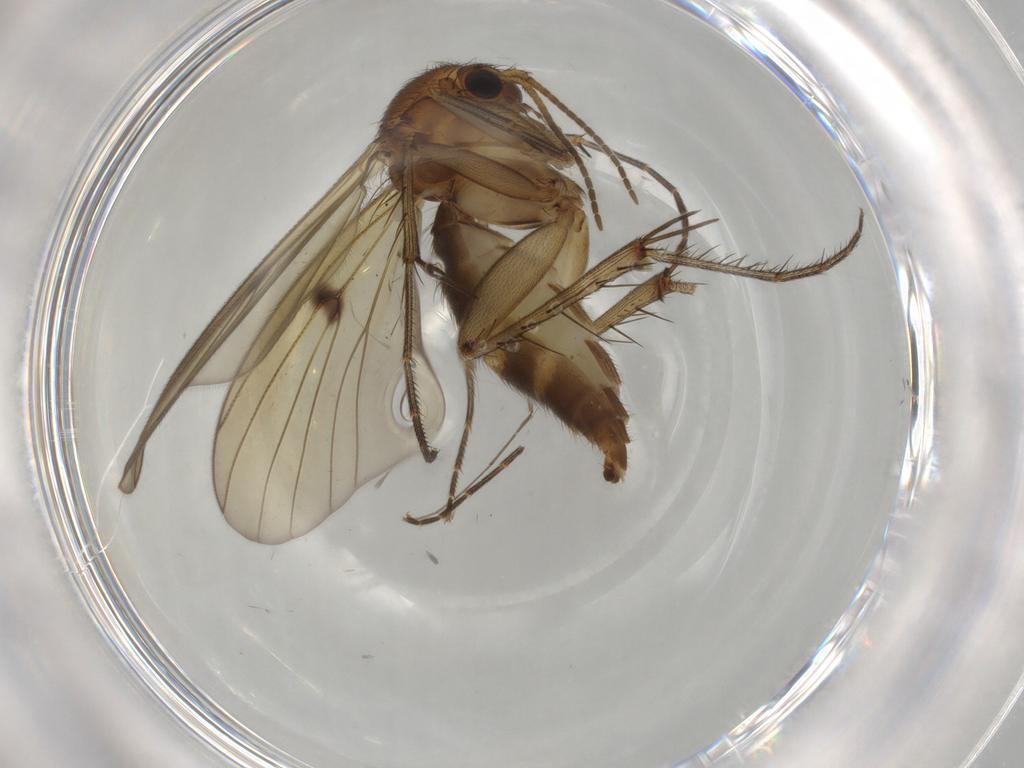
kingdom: Animalia
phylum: Arthropoda
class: Insecta
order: Diptera
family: Mycetophilidae
